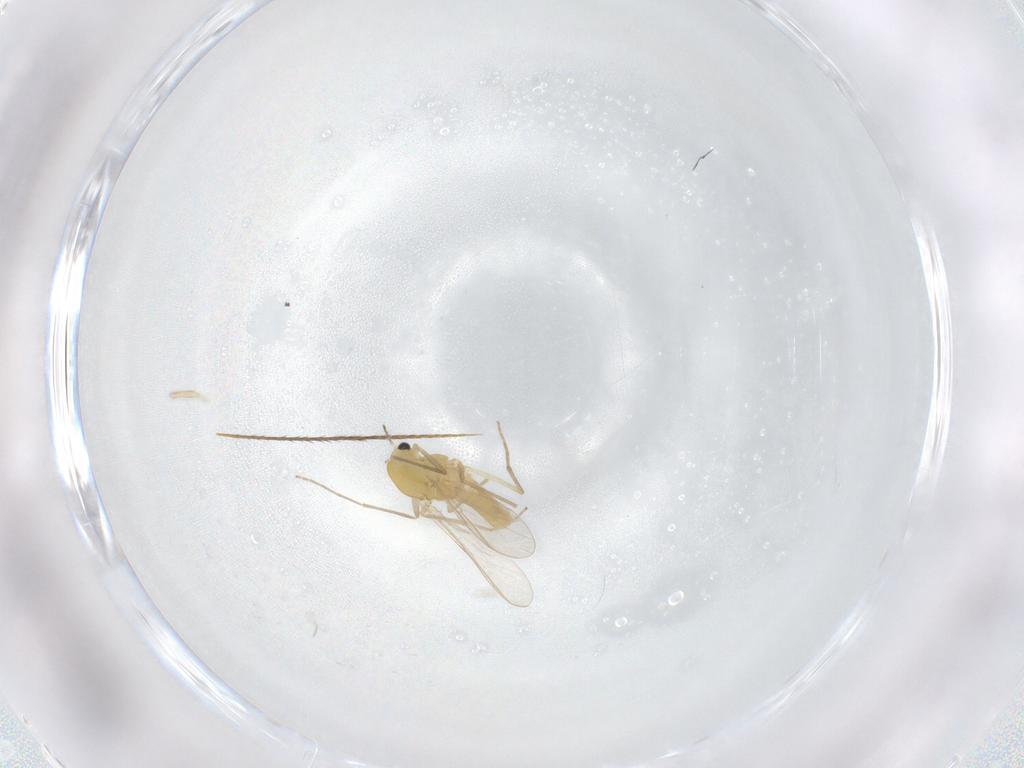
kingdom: Animalia
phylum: Arthropoda
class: Insecta
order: Diptera
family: Chironomidae
